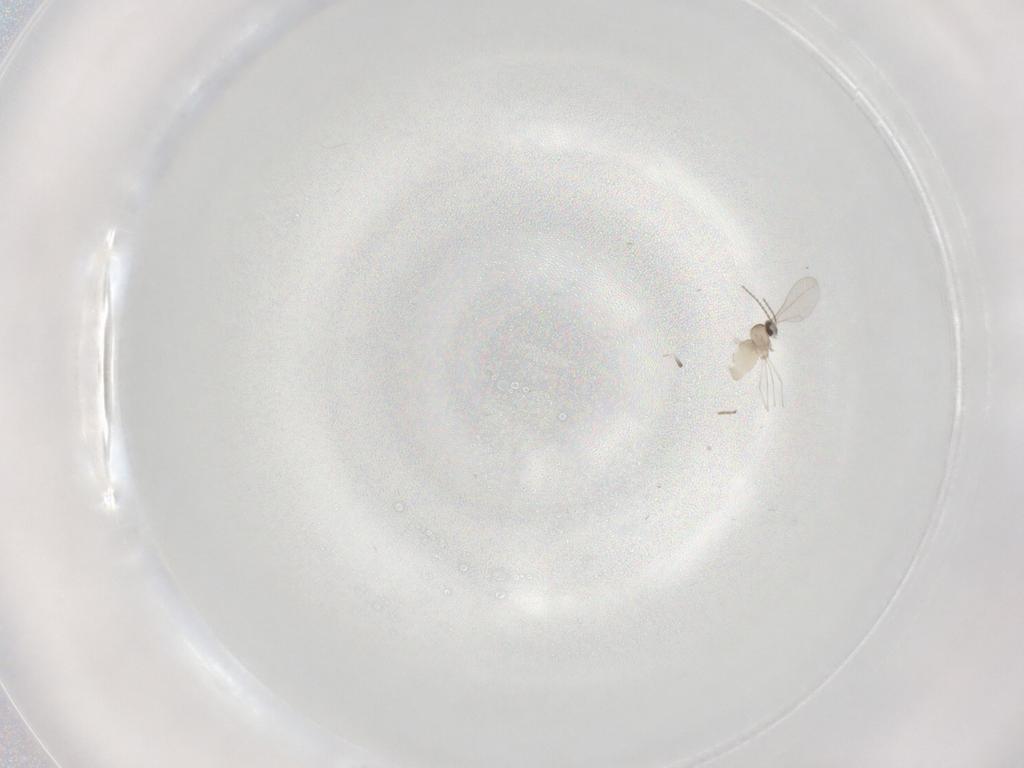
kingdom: Animalia
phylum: Arthropoda
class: Insecta
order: Diptera
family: Cecidomyiidae
